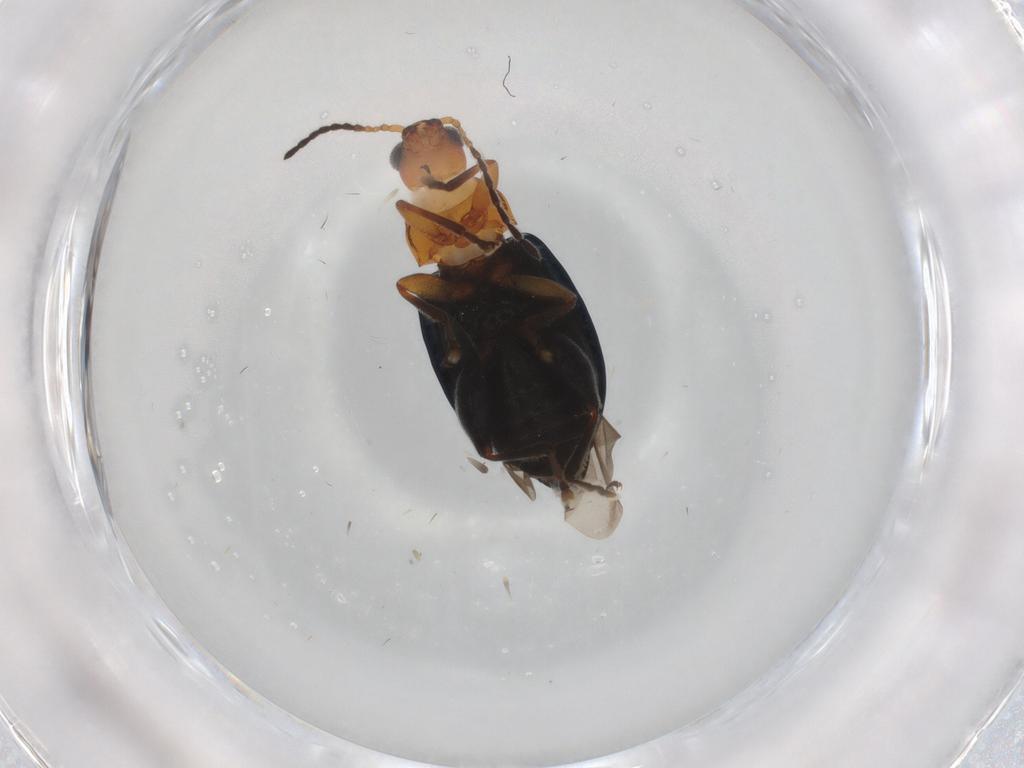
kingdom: Animalia
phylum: Arthropoda
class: Insecta
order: Coleoptera
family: Chrysomelidae
